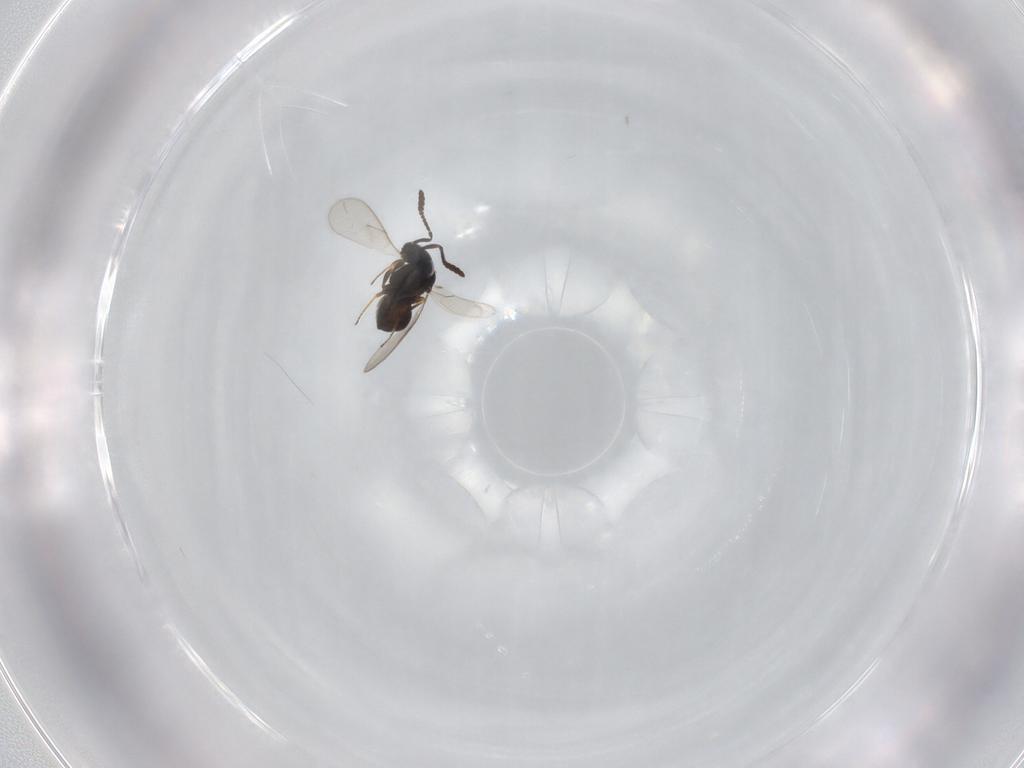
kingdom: Animalia
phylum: Arthropoda
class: Insecta
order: Hymenoptera
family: Scelionidae
